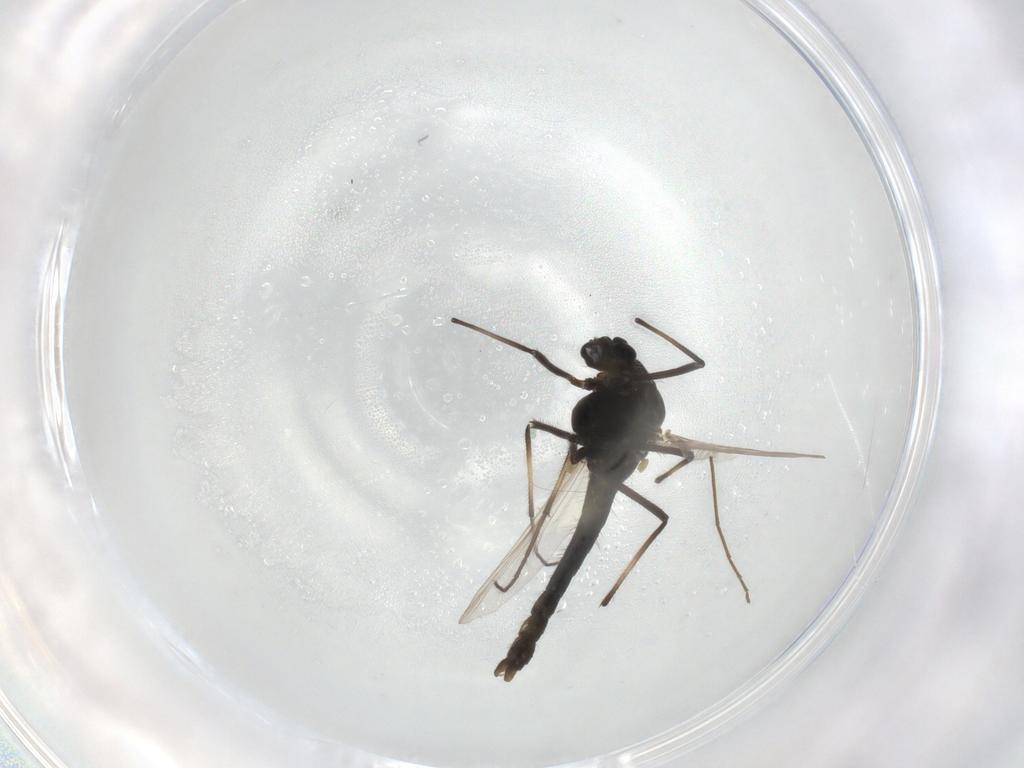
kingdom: Animalia
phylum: Arthropoda
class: Insecta
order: Diptera
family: Chironomidae
